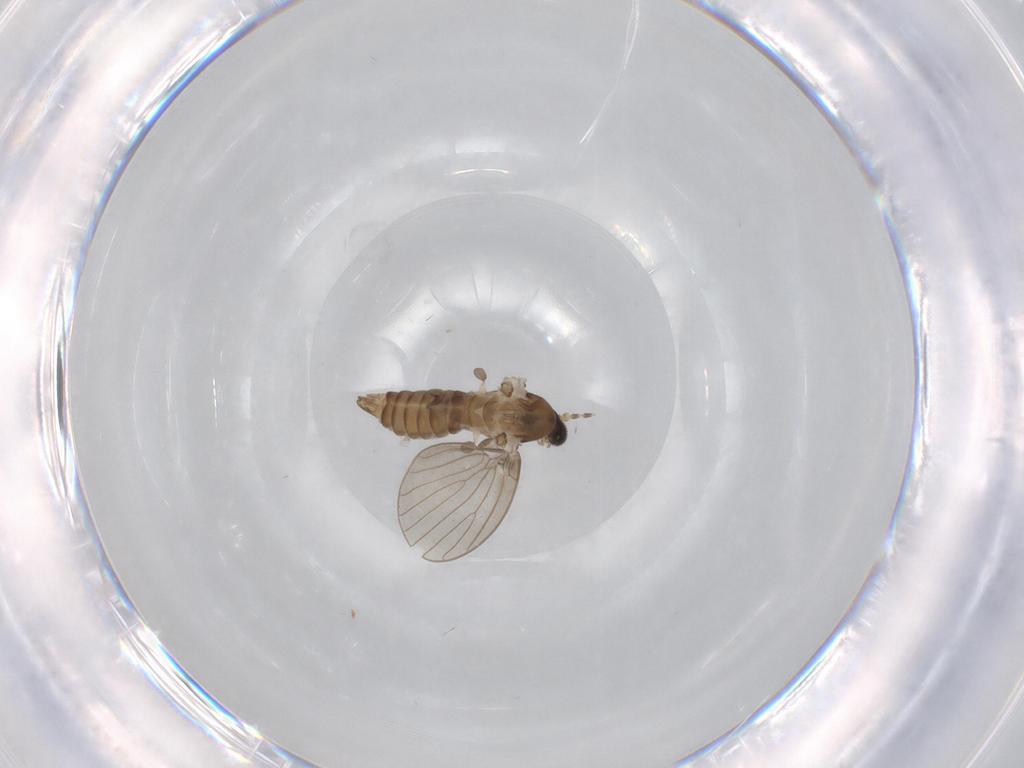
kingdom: Animalia
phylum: Arthropoda
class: Insecta
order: Diptera
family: Cecidomyiidae
